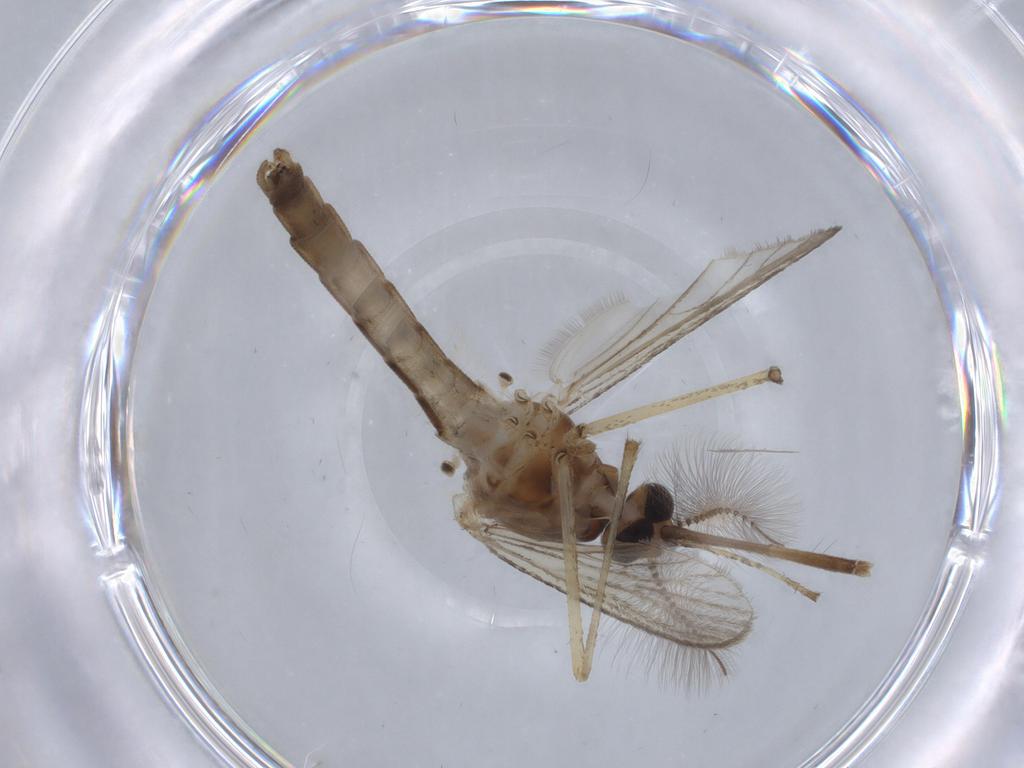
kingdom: Animalia
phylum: Arthropoda
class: Insecta
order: Diptera
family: Culicidae
